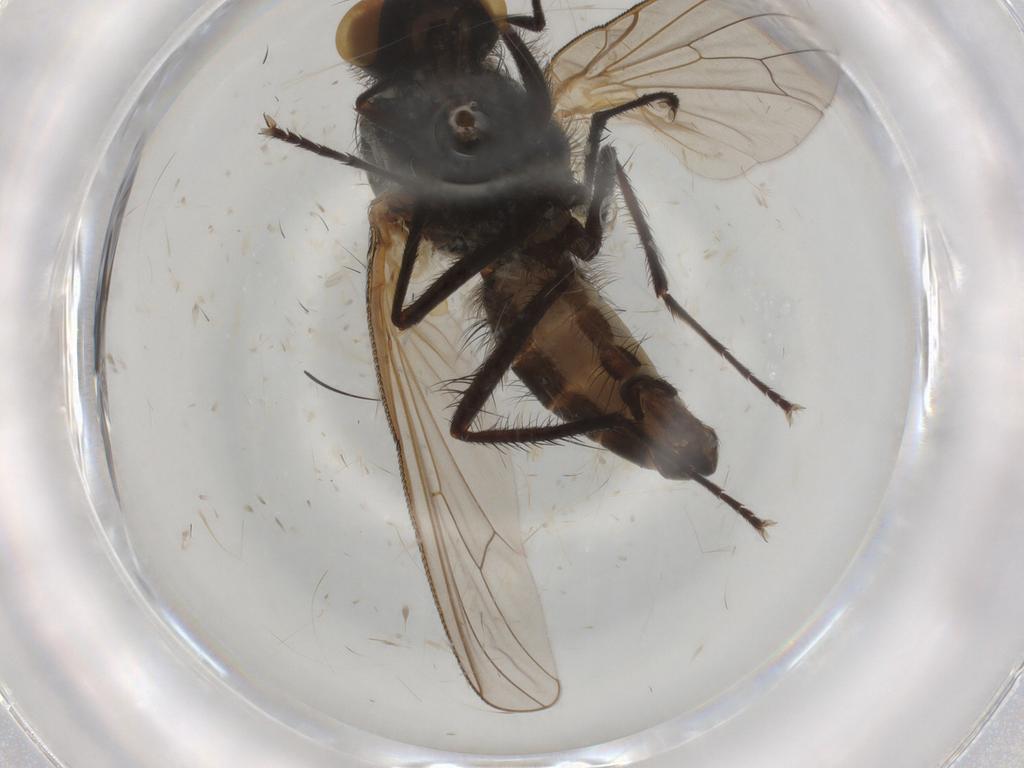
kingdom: Animalia
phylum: Arthropoda
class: Insecta
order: Diptera
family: Anthomyiidae
